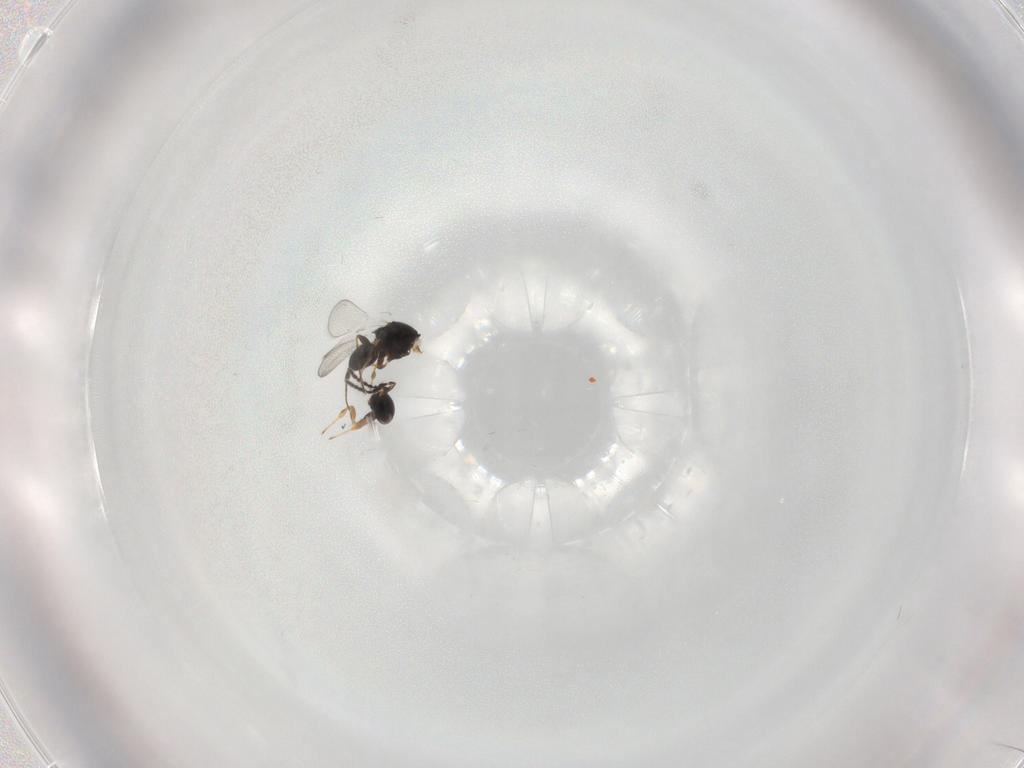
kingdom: Animalia
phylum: Arthropoda
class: Insecta
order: Hymenoptera
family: Platygastridae
